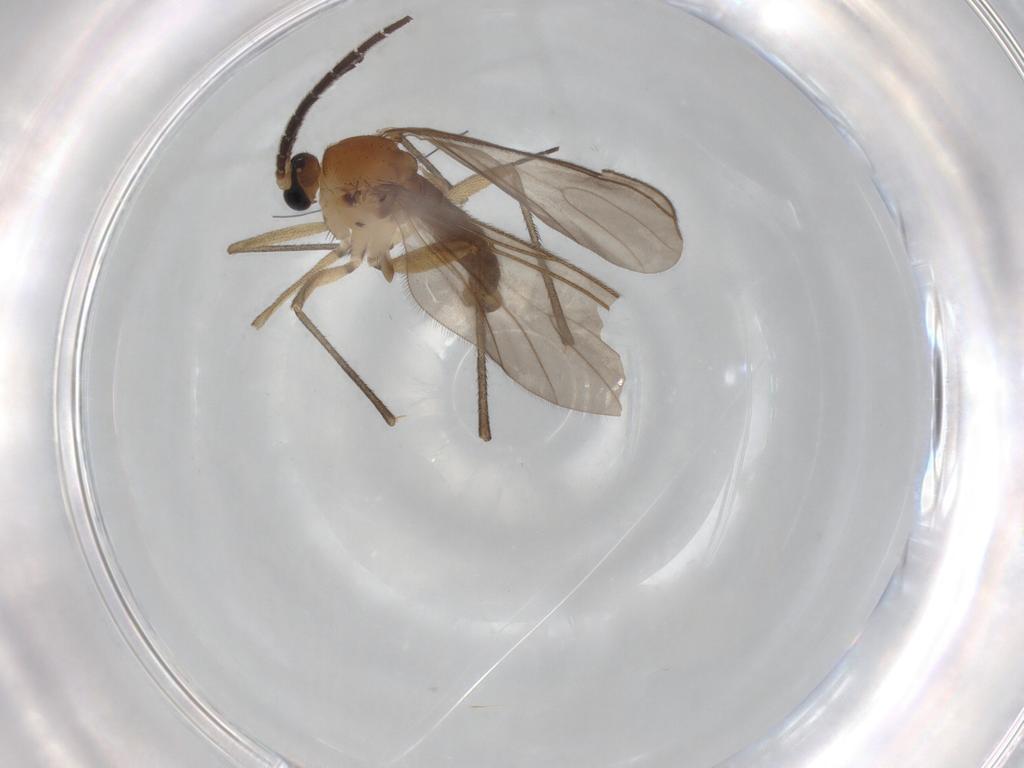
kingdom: Animalia
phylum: Arthropoda
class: Insecta
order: Diptera
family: Sciaridae
